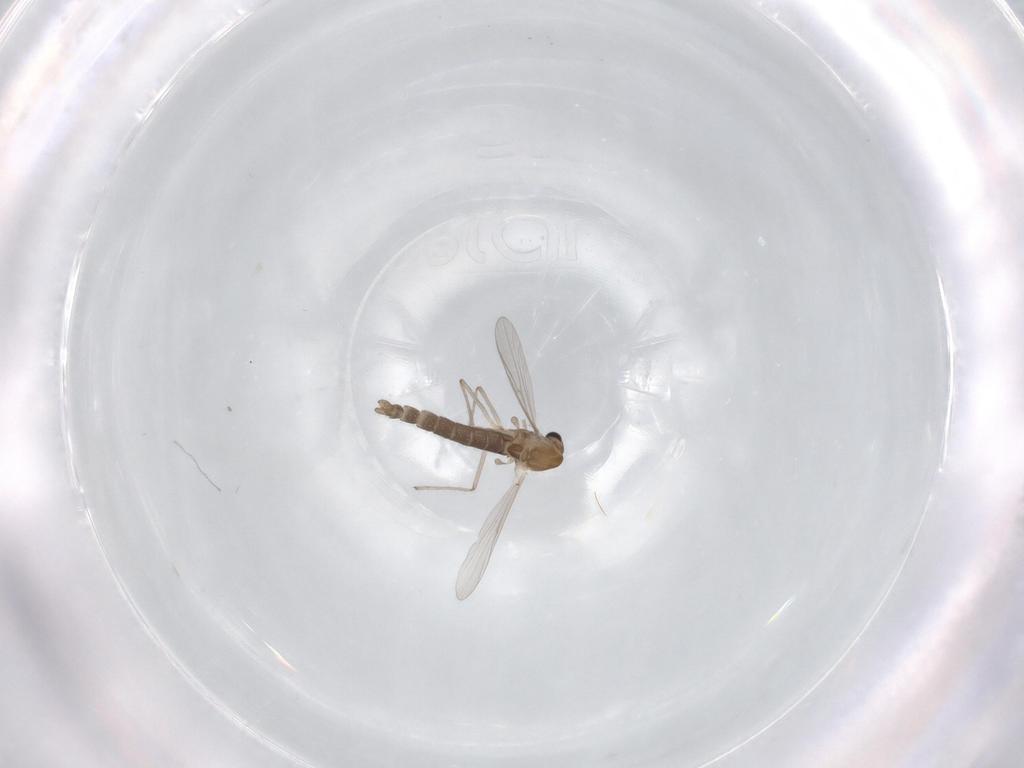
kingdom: Animalia
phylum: Arthropoda
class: Insecta
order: Diptera
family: Chironomidae
